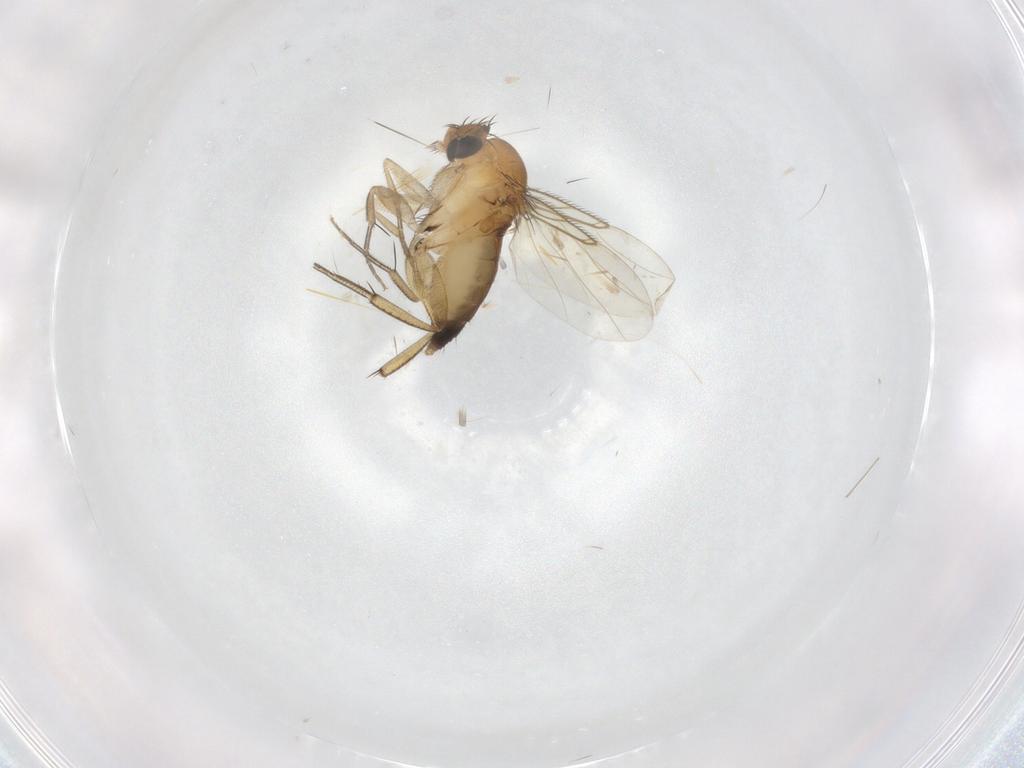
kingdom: Animalia
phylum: Arthropoda
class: Insecta
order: Diptera
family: Phoridae
